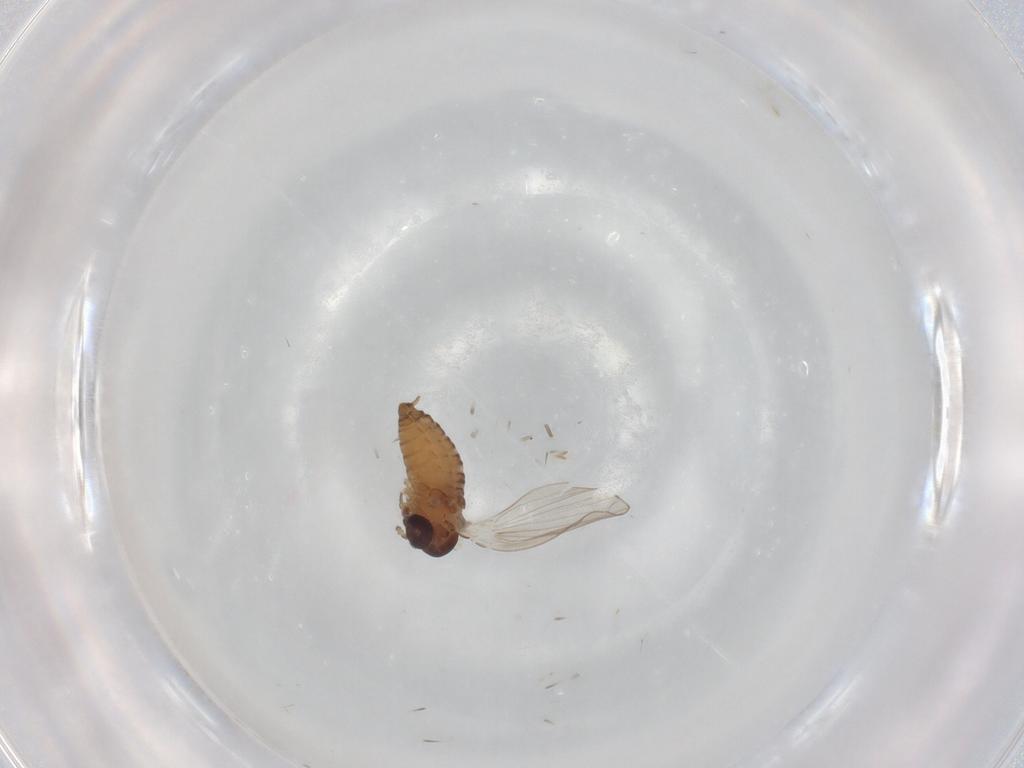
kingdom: Animalia
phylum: Arthropoda
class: Insecta
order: Diptera
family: Psychodidae
